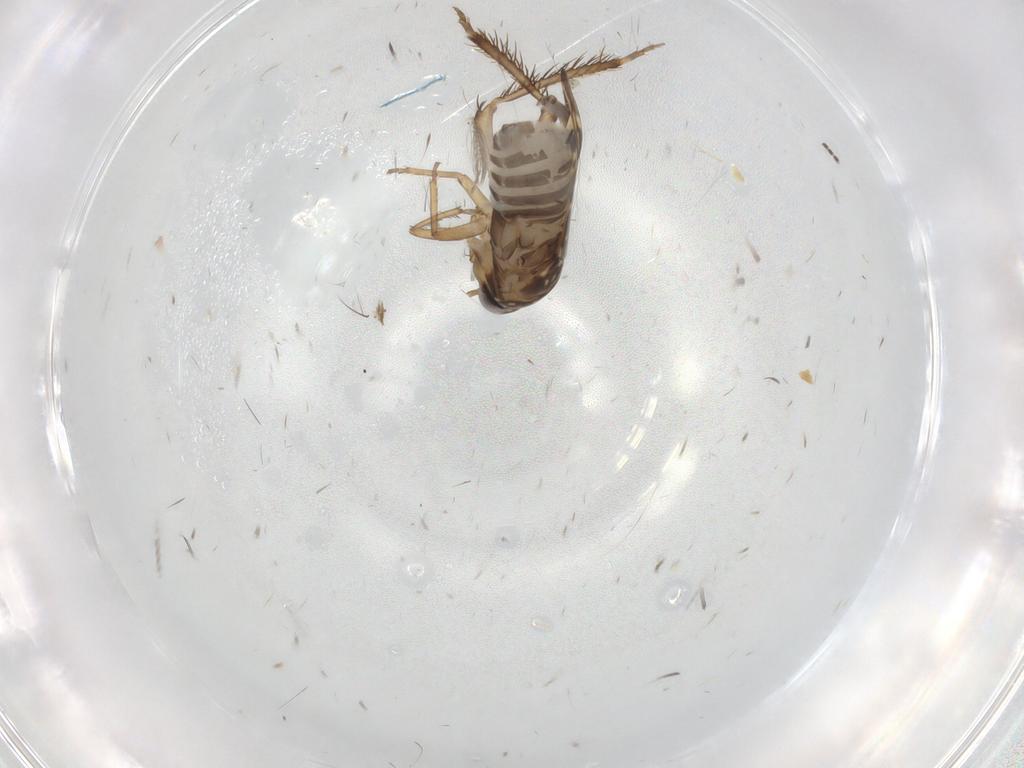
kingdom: Animalia
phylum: Arthropoda
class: Insecta
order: Hemiptera
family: Cicadellidae
